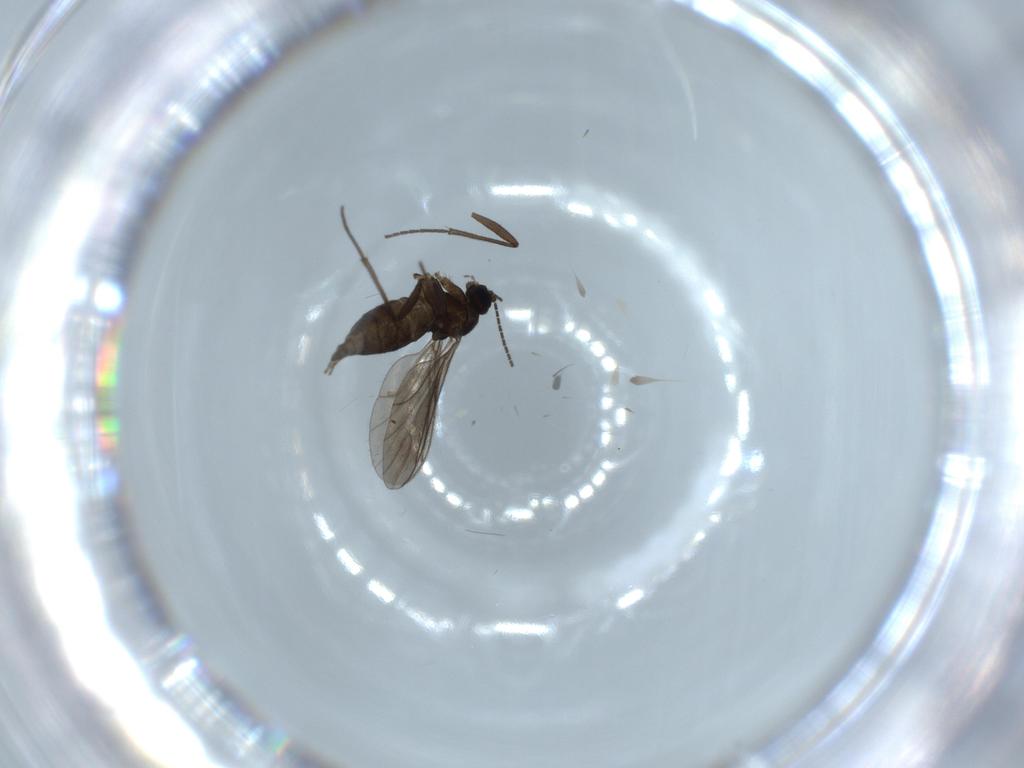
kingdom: Animalia
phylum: Arthropoda
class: Insecta
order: Diptera
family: Sciaridae
